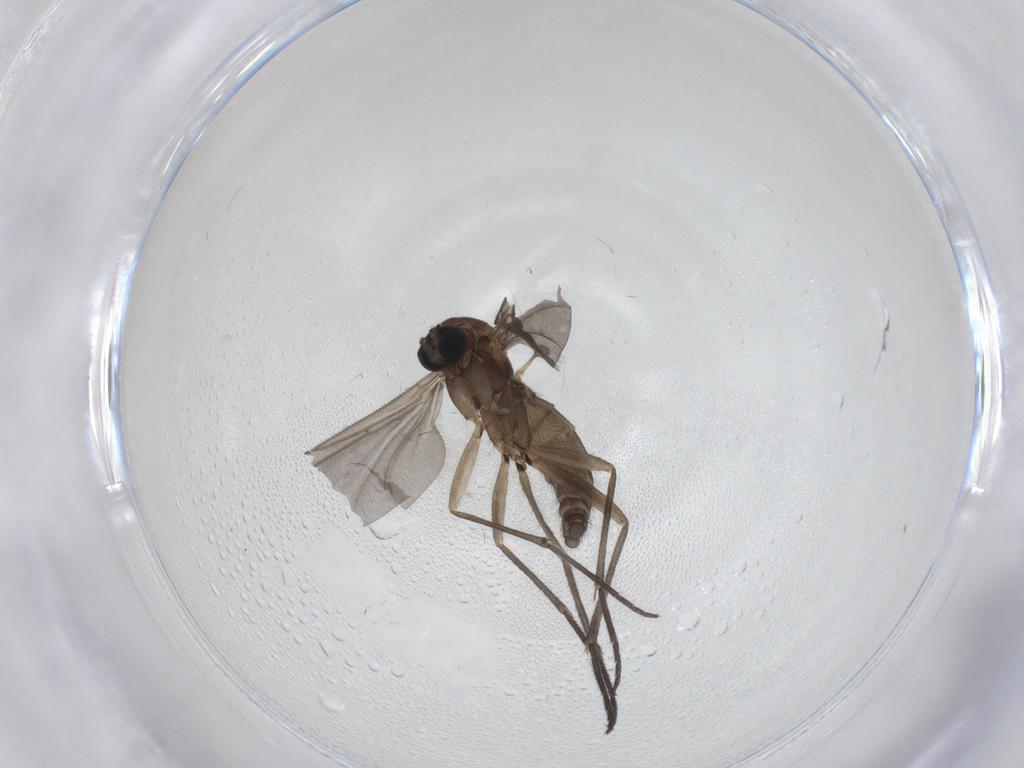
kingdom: Animalia
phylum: Arthropoda
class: Insecta
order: Diptera
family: Sciaridae
